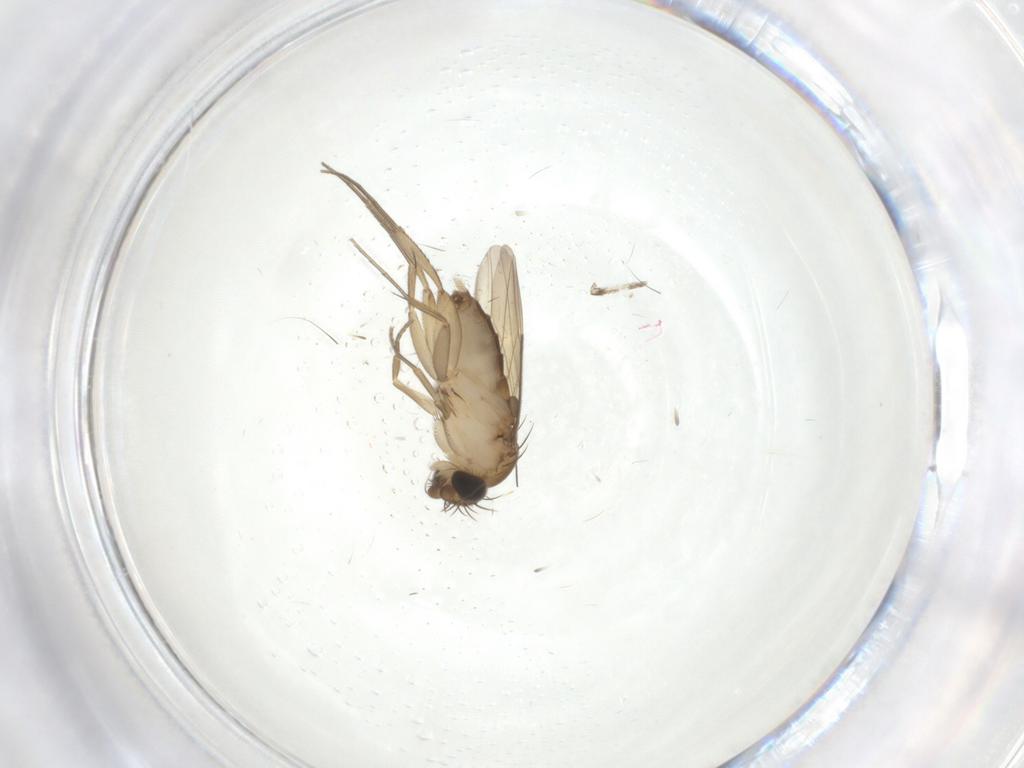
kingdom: Animalia
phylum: Arthropoda
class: Insecta
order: Diptera
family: Phoridae
